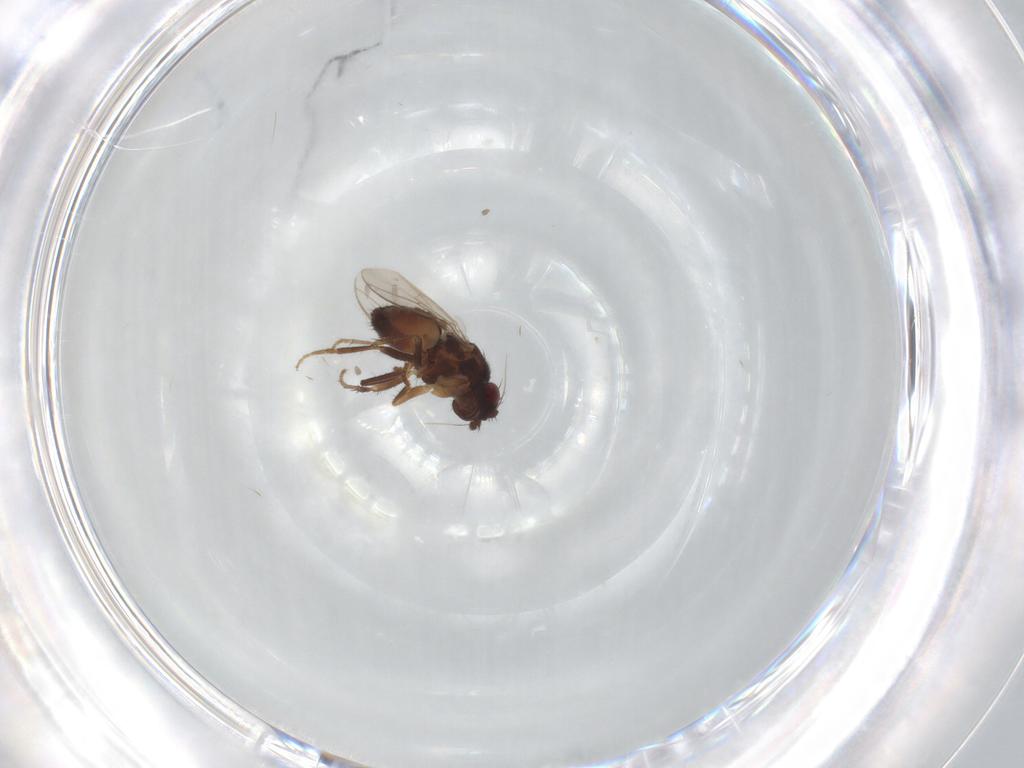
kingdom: Animalia
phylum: Arthropoda
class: Insecta
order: Diptera
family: Sphaeroceridae
